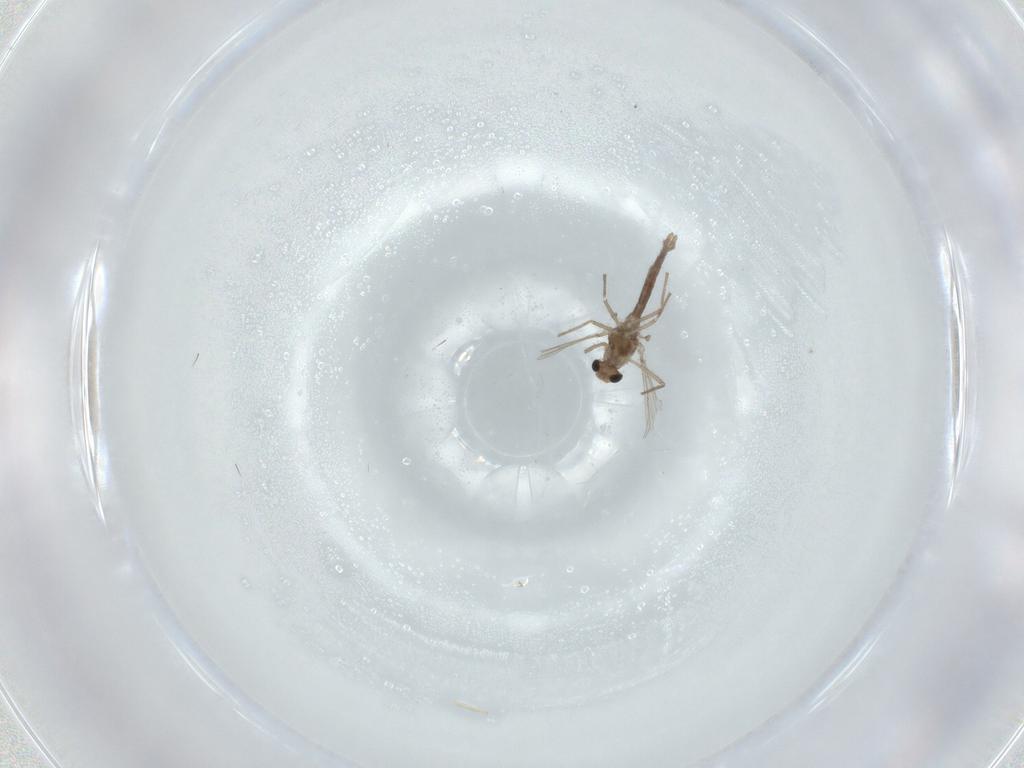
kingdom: Animalia
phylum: Arthropoda
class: Insecta
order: Diptera
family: Chironomidae
